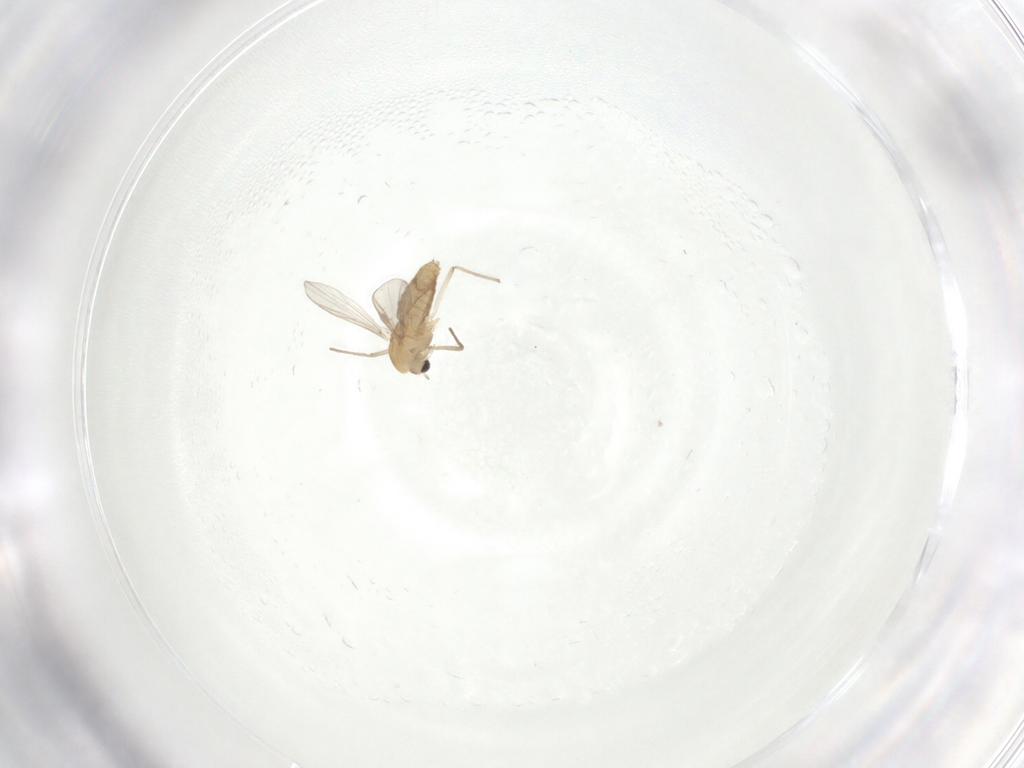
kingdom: Animalia
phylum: Arthropoda
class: Insecta
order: Diptera
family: Chironomidae
